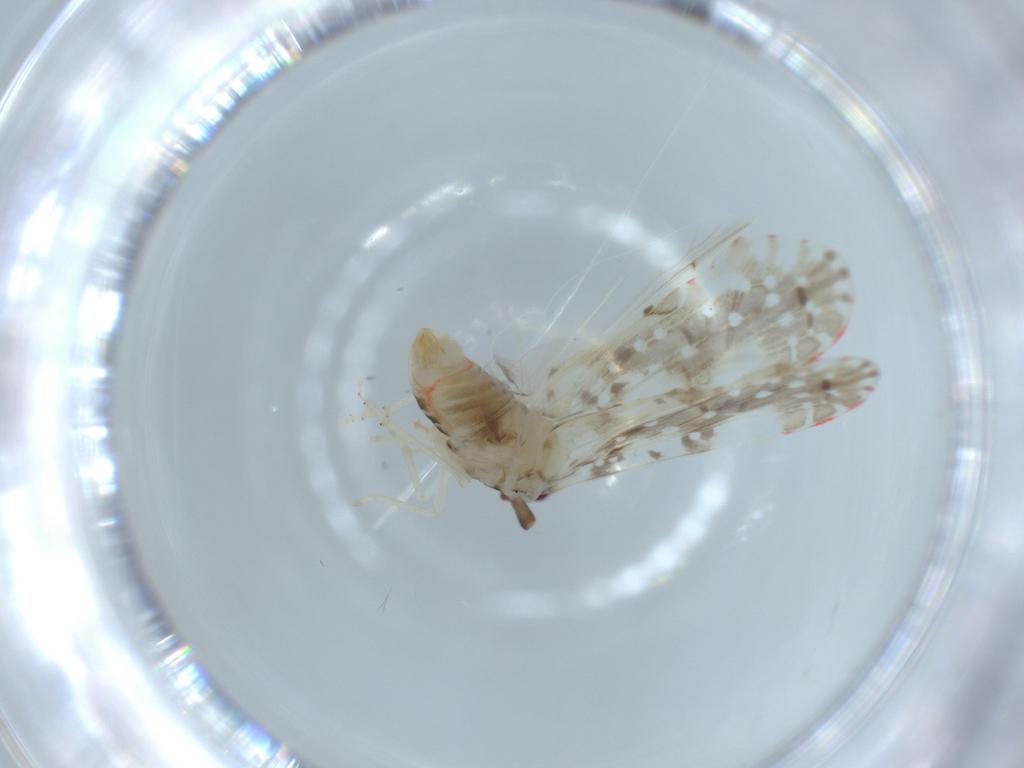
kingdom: Animalia
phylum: Arthropoda
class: Insecta
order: Hemiptera
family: Derbidae
